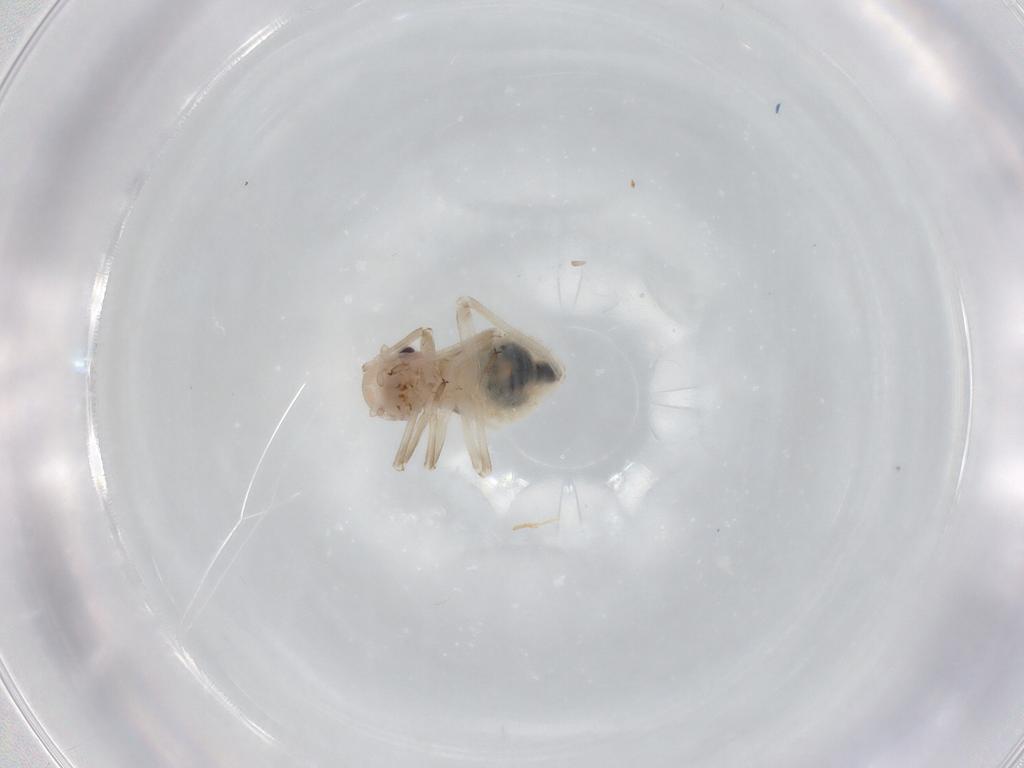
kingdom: Animalia
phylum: Arthropoda
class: Insecta
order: Psocodea
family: Stenopsocidae
